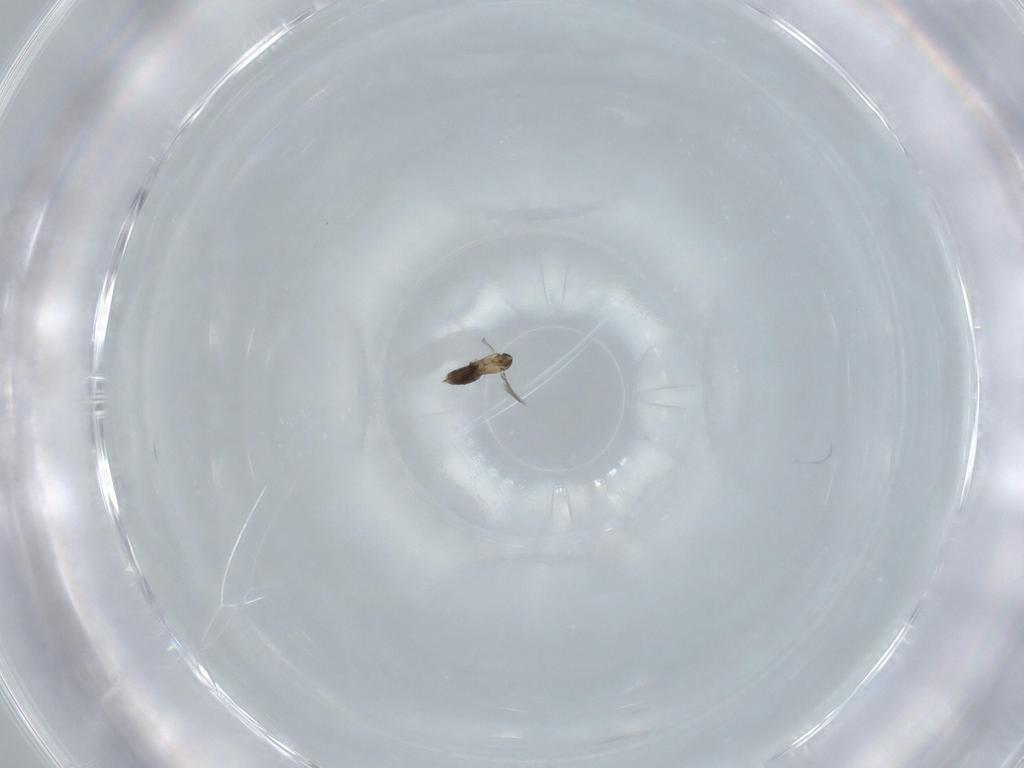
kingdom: Animalia
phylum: Arthropoda
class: Insecta
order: Hymenoptera
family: Mymaridae
